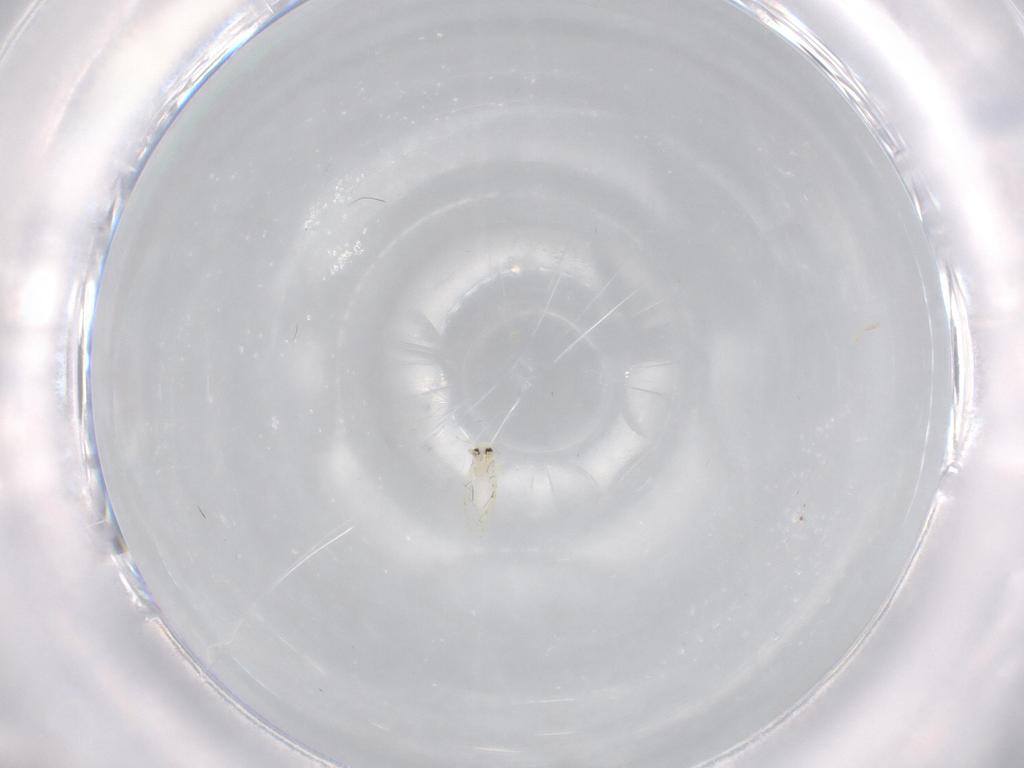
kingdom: Animalia
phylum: Arthropoda
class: Insecta
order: Hemiptera
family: Aleyrodidae
